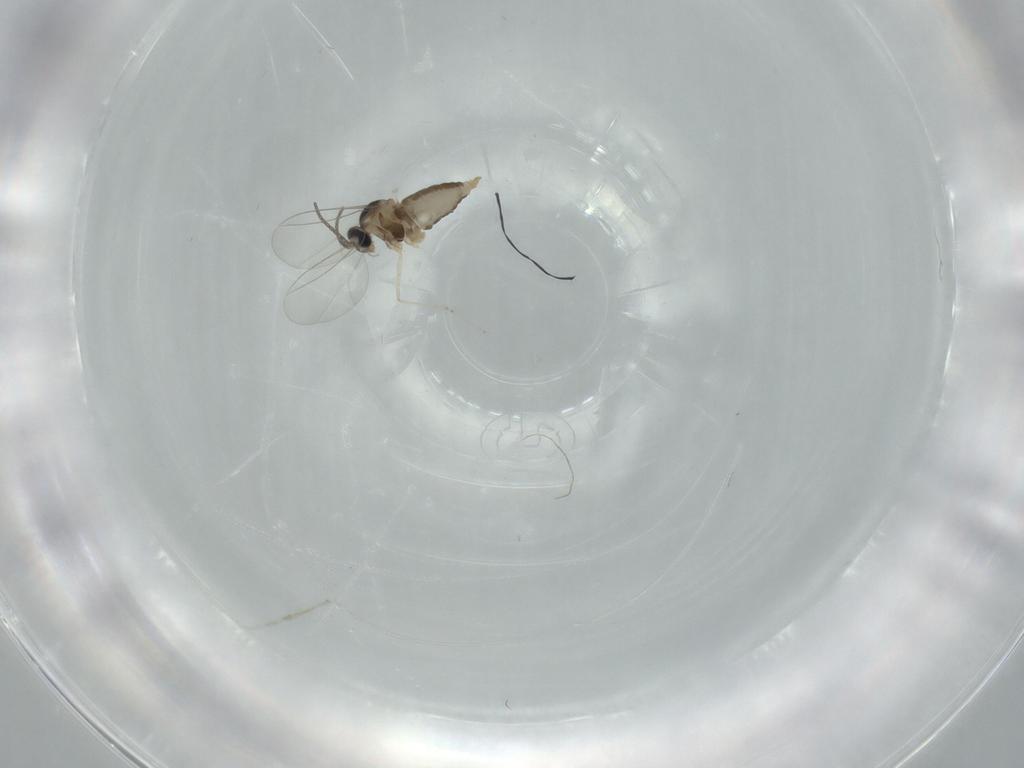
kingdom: Animalia
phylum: Arthropoda
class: Insecta
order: Diptera
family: Cecidomyiidae
